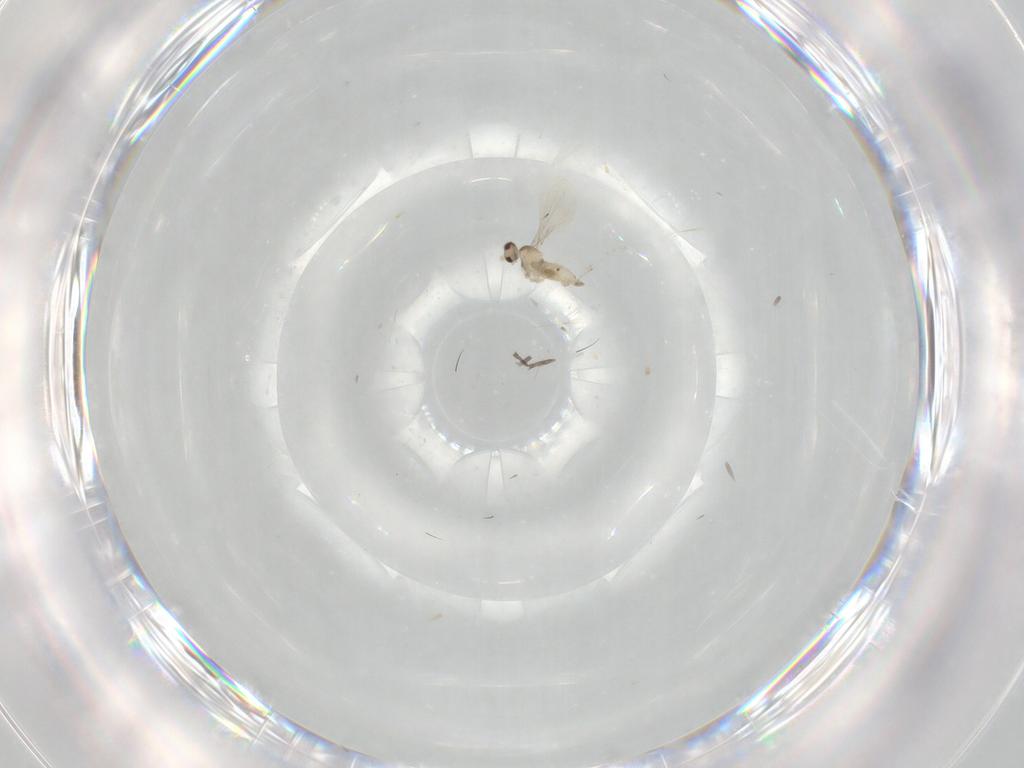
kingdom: Animalia
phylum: Arthropoda
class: Insecta
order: Diptera
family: Cecidomyiidae
